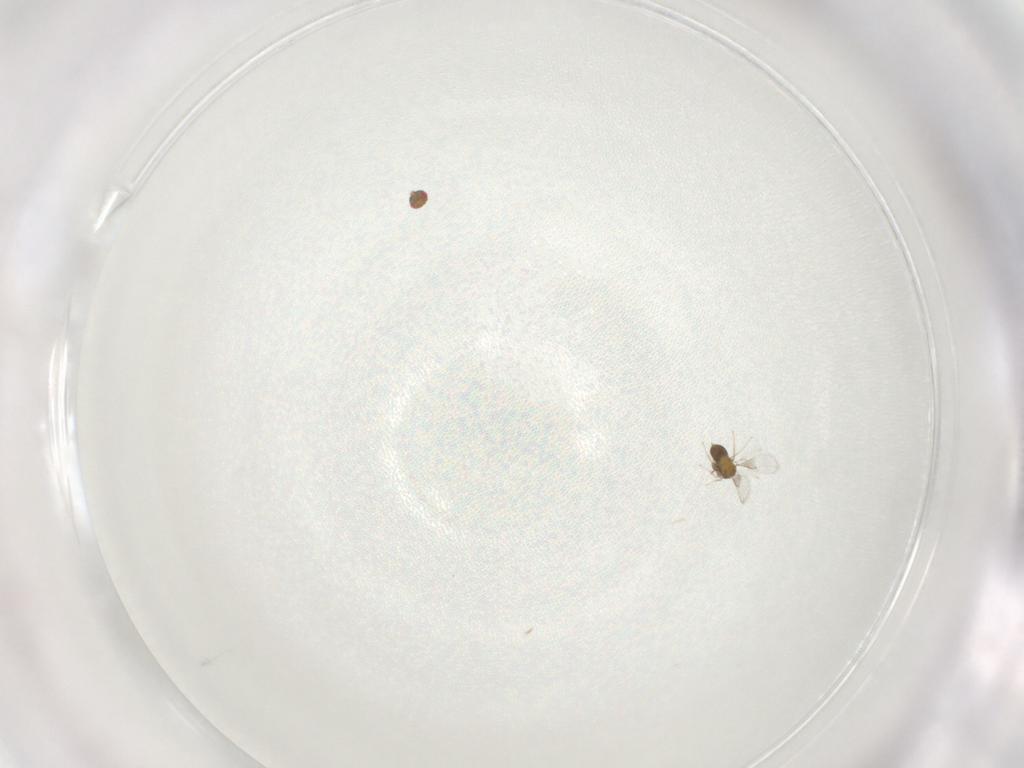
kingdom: Animalia
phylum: Arthropoda
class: Insecta
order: Hymenoptera
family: Trichogrammatidae
